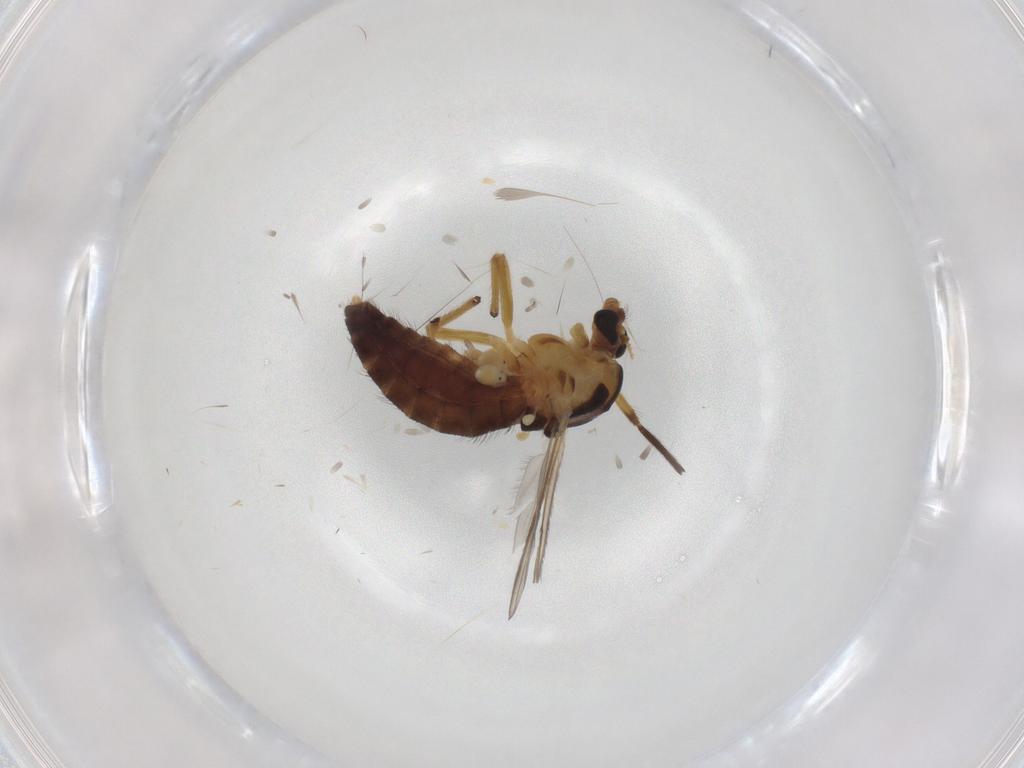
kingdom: Animalia
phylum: Arthropoda
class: Insecta
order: Diptera
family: Chironomidae
